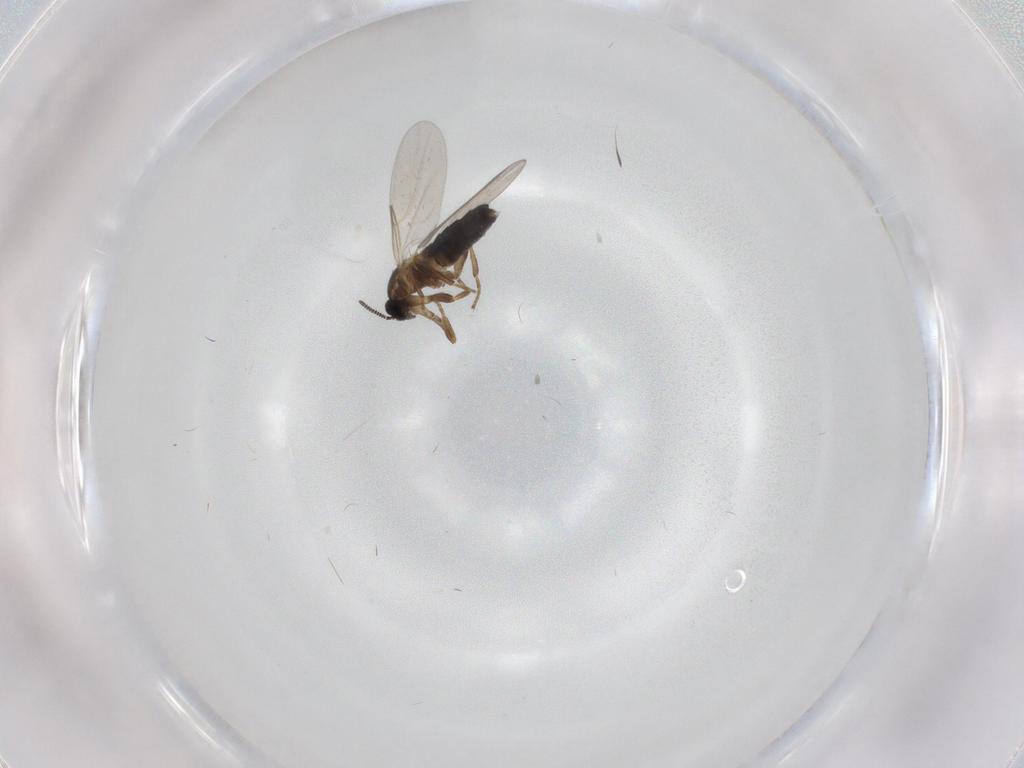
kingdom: Animalia
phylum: Arthropoda
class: Insecta
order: Diptera
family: Scatopsidae
